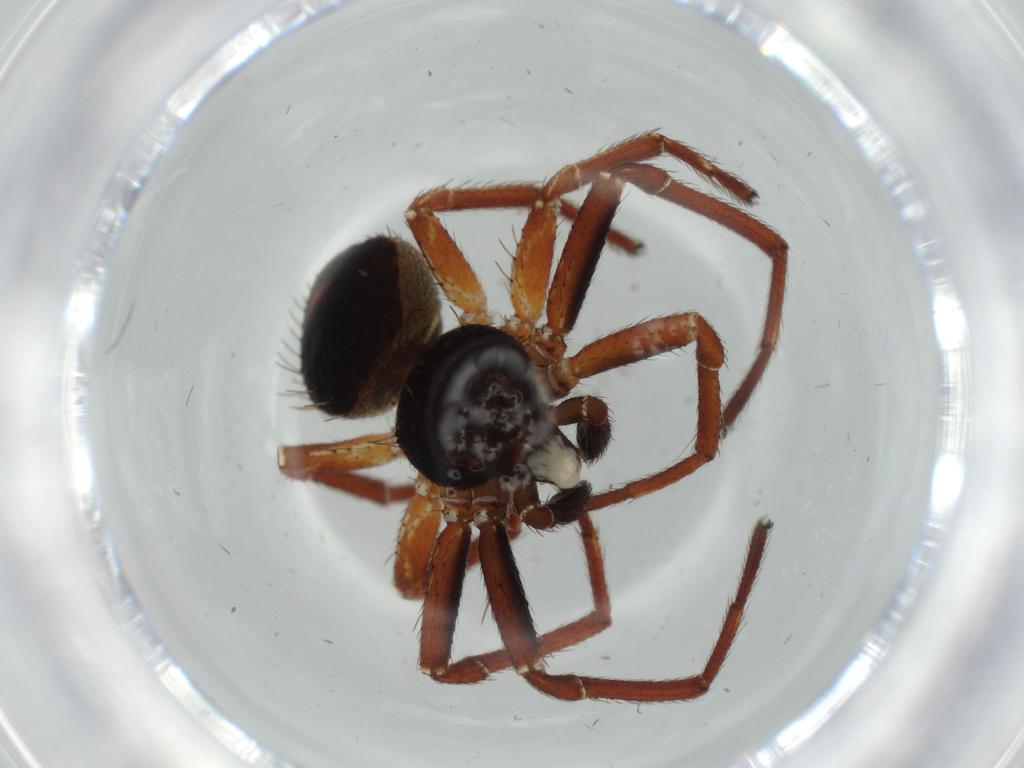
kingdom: Animalia
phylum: Arthropoda
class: Arachnida
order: Araneae
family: Thomisidae
